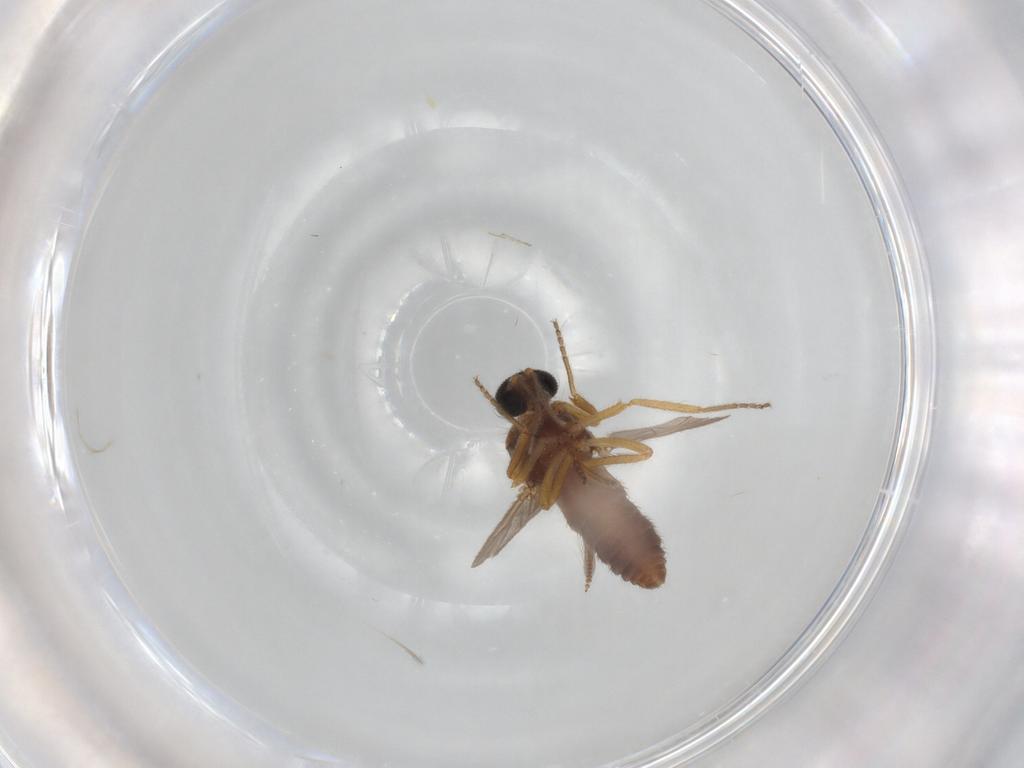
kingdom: Animalia
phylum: Arthropoda
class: Insecta
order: Diptera
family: Ceratopogonidae
